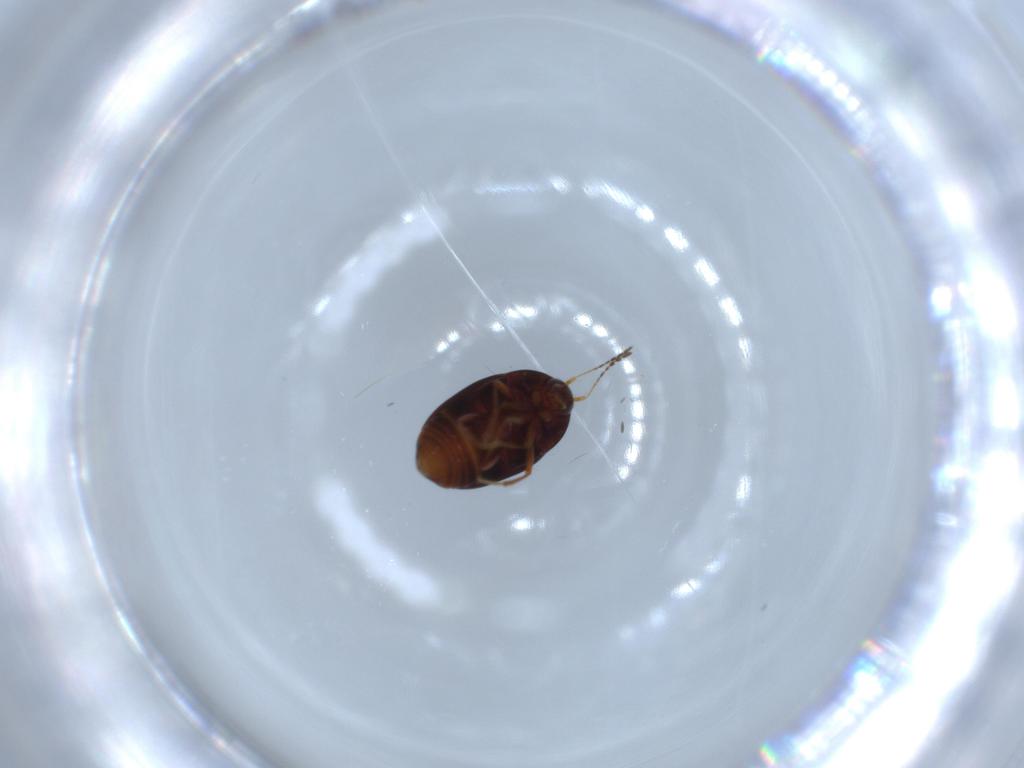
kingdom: Animalia
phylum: Arthropoda
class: Insecta
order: Coleoptera
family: Staphylinidae
